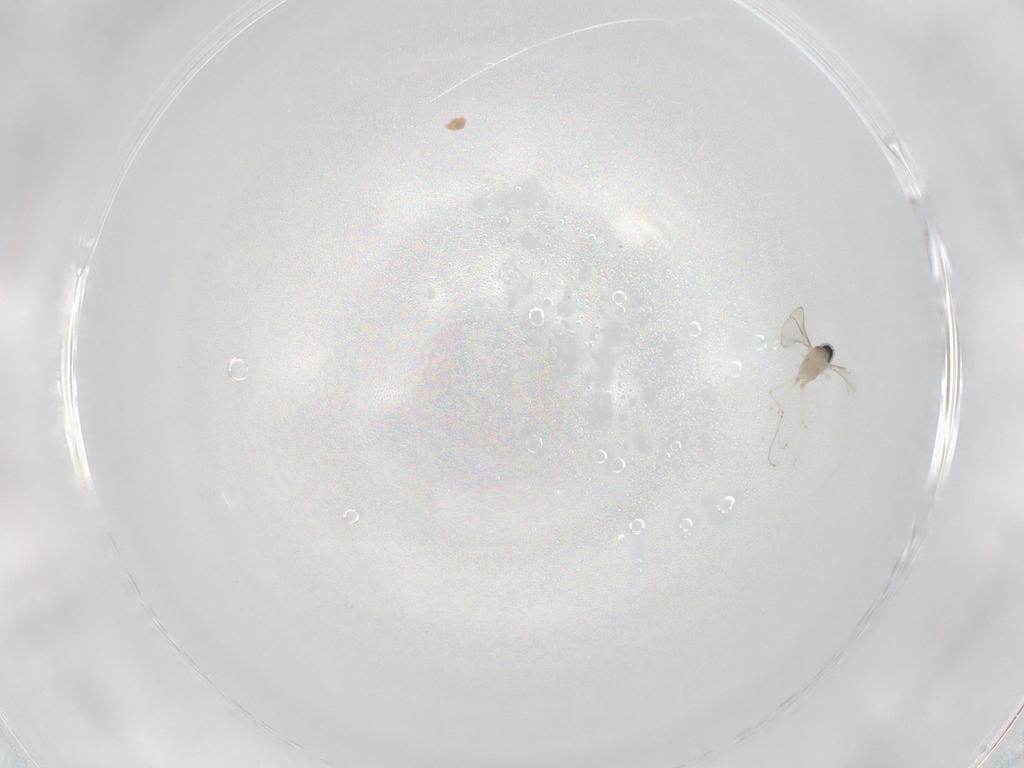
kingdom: Animalia
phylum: Arthropoda
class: Insecta
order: Diptera
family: Cecidomyiidae
